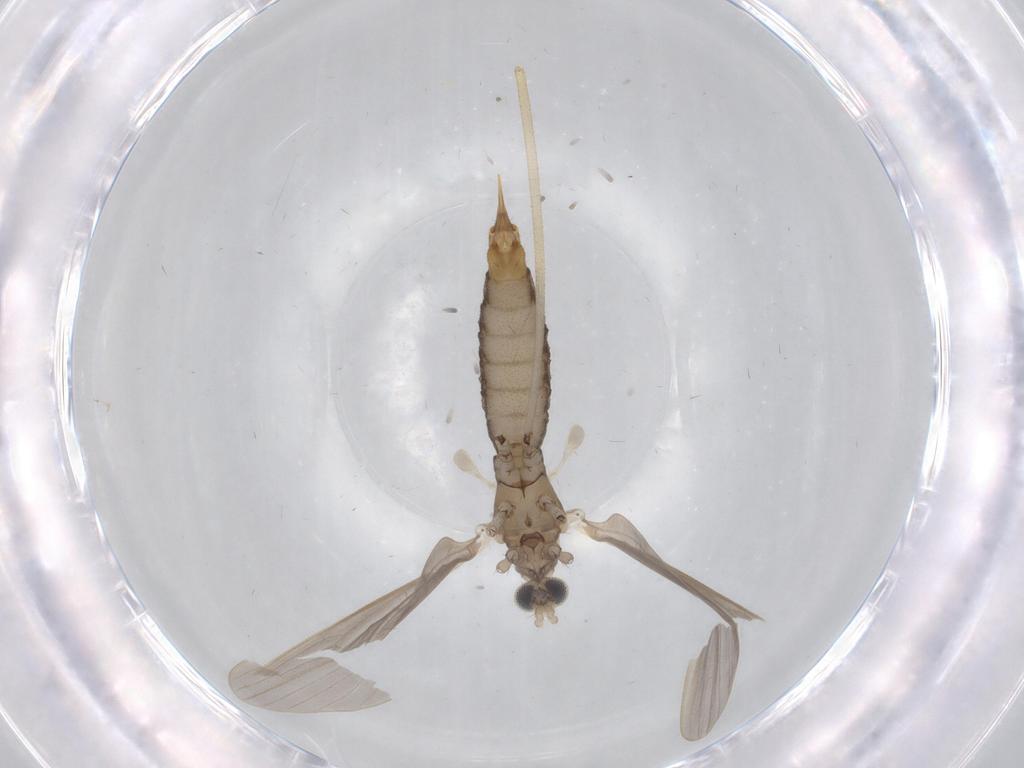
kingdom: Animalia
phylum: Arthropoda
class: Insecta
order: Diptera
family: Limoniidae
